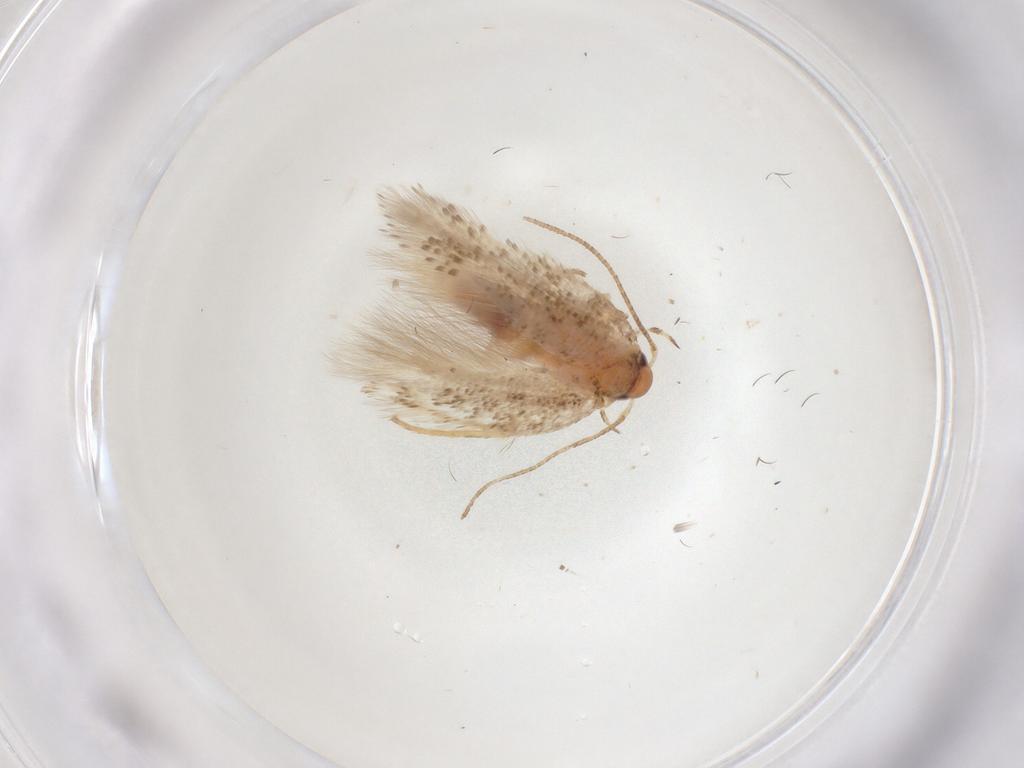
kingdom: Animalia
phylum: Arthropoda
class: Insecta
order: Lepidoptera
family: Gelechiidae
